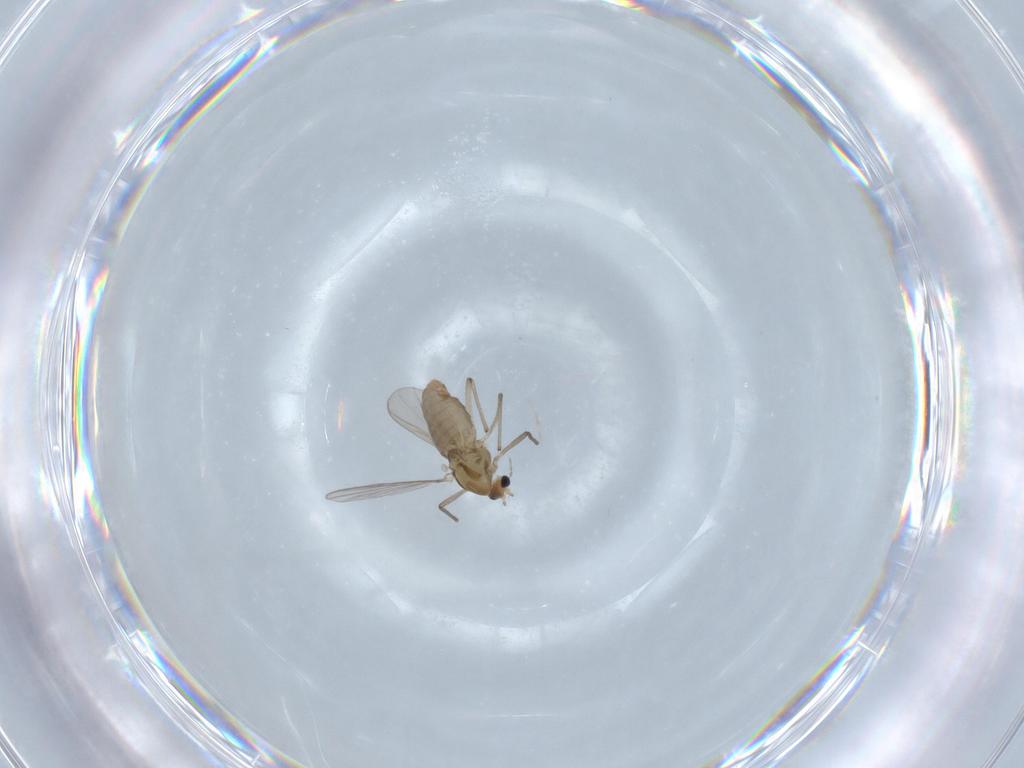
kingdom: Animalia
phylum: Arthropoda
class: Insecta
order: Diptera
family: Chironomidae
